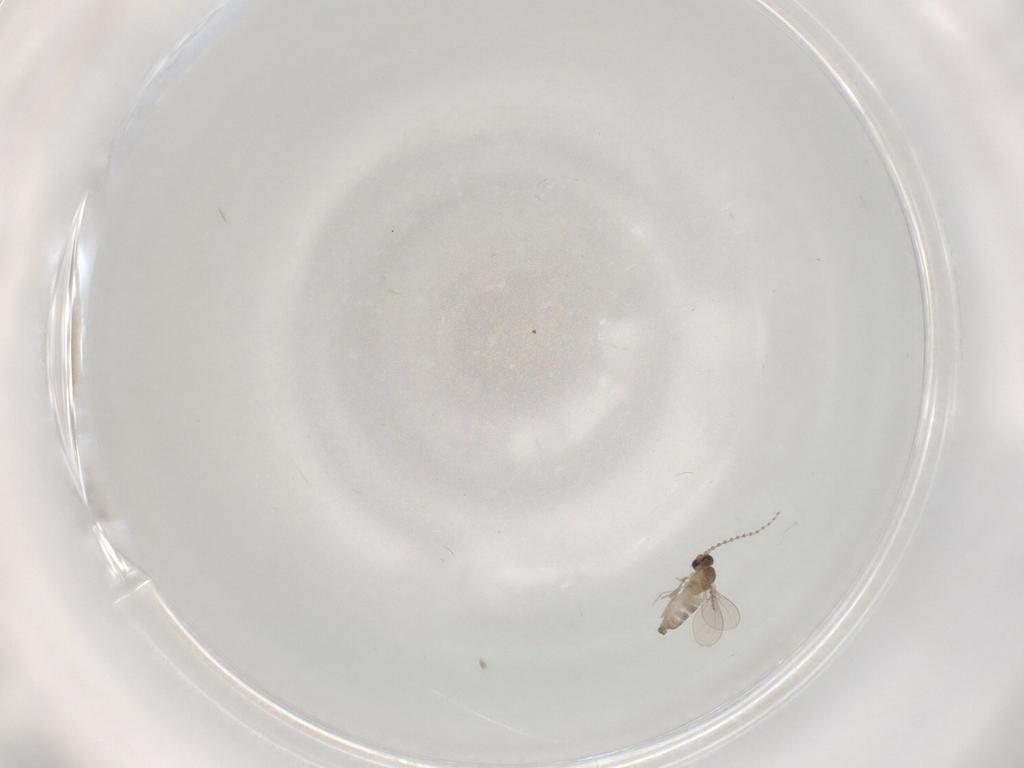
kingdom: Animalia
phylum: Arthropoda
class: Insecta
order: Diptera
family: Cecidomyiidae
